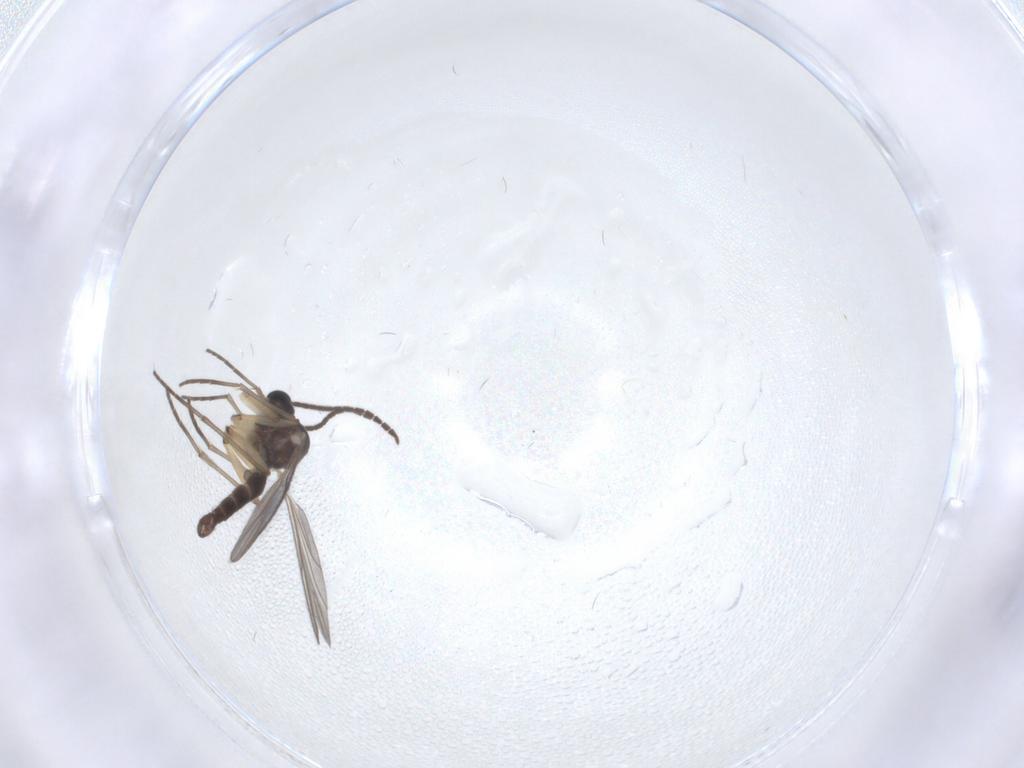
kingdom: Animalia
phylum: Arthropoda
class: Insecta
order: Diptera
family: Sciaridae
